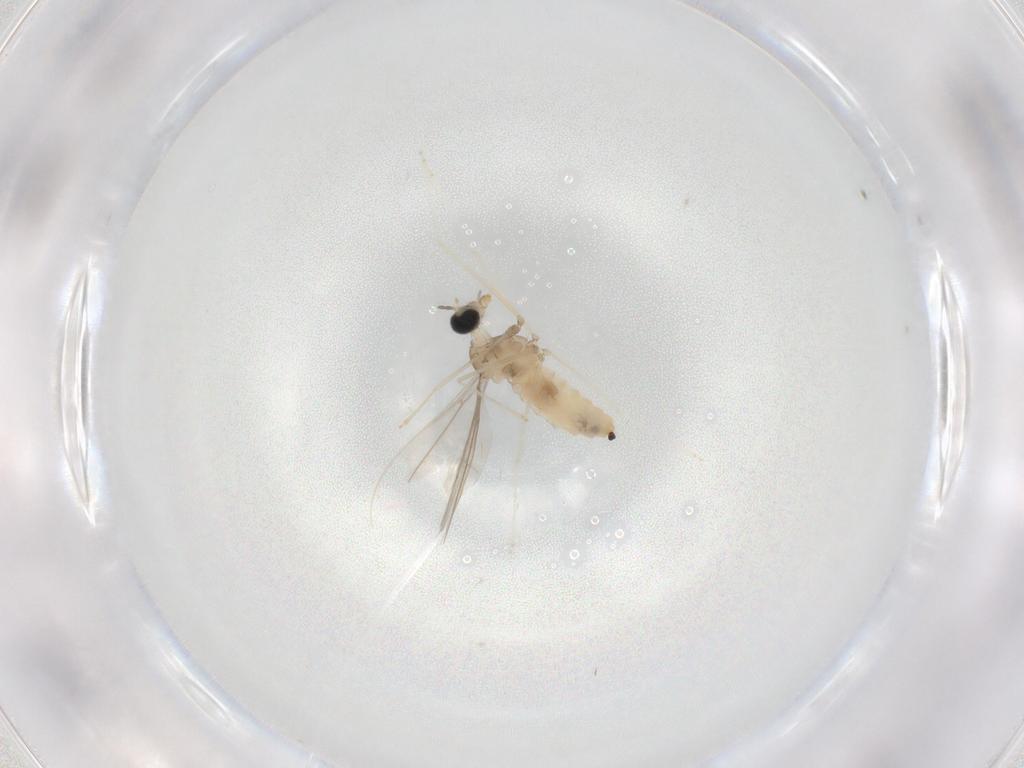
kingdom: Animalia
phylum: Arthropoda
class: Insecta
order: Diptera
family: Cecidomyiidae
